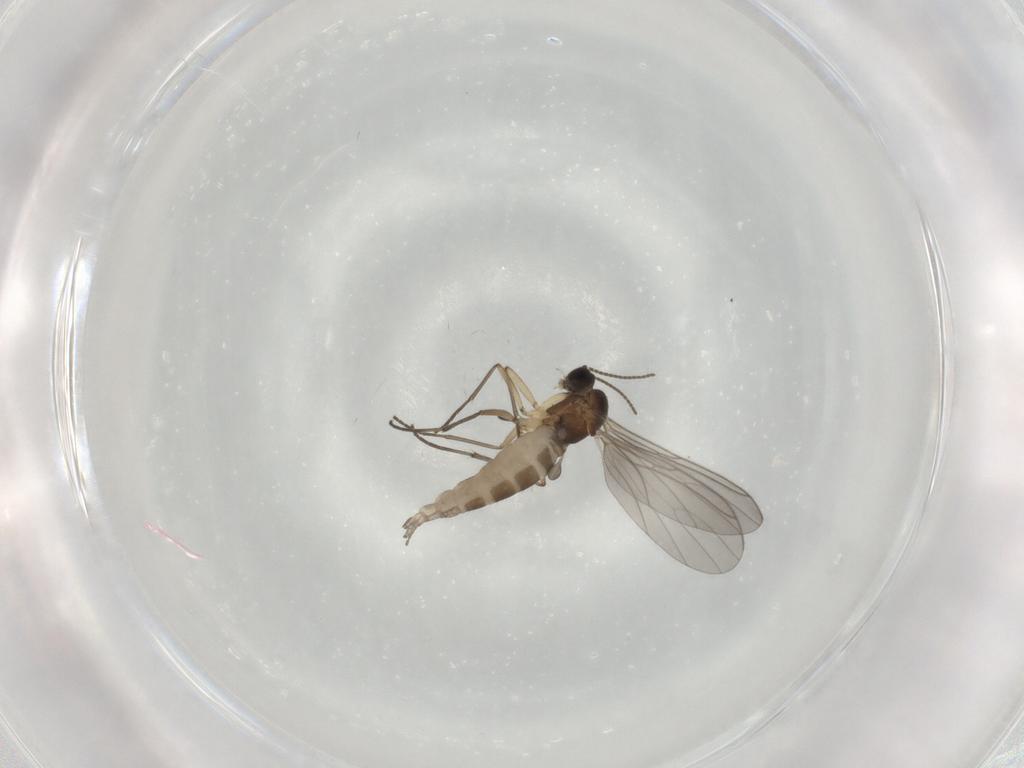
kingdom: Animalia
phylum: Arthropoda
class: Insecta
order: Diptera
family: Sciaridae
